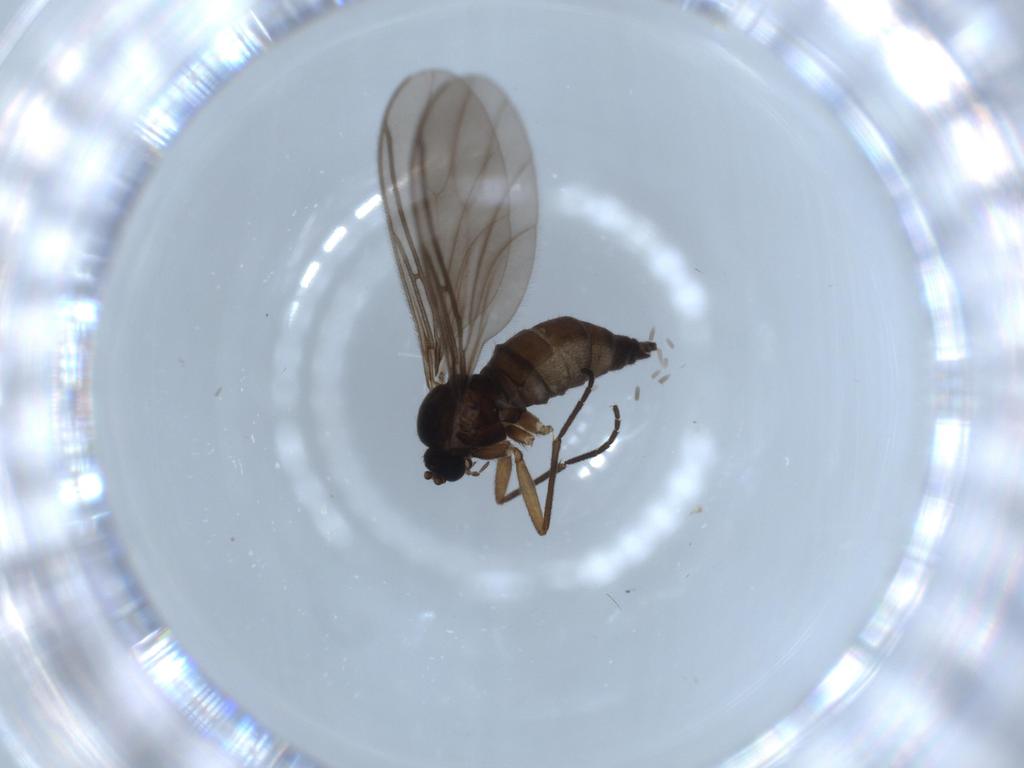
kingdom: Animalia
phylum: Arthropoda
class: Insecta
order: Diptera
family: Sciaridae
